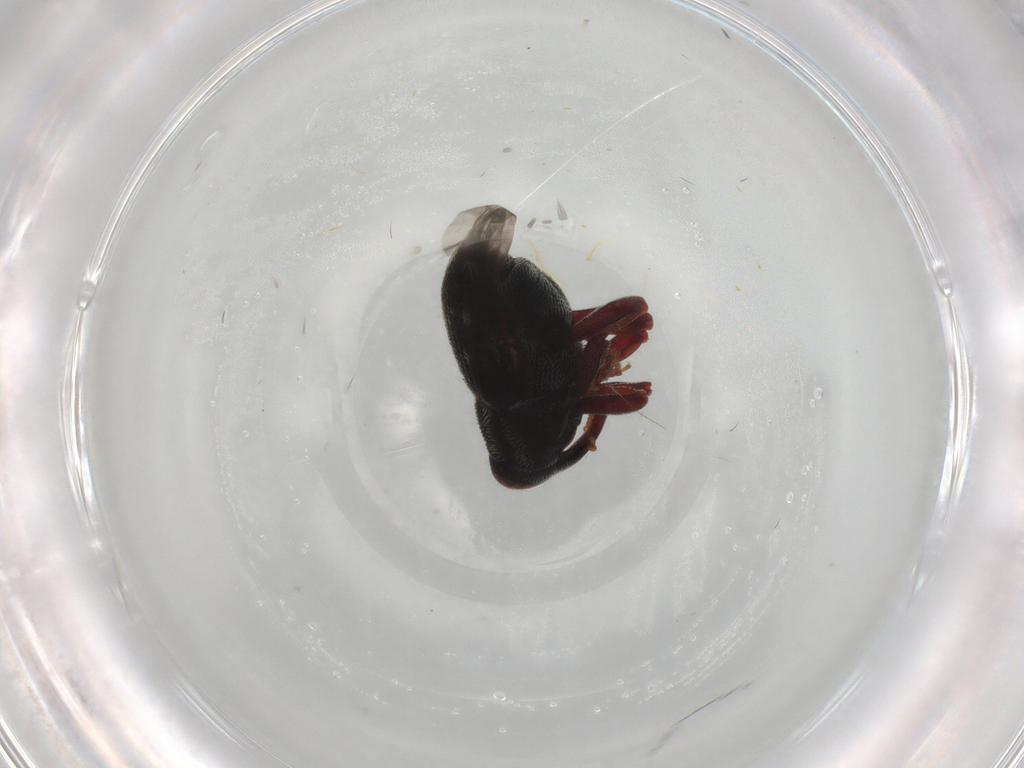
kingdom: Animalia
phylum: Arthropoda
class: Insecta
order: Coleoptera
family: Curculionidae
